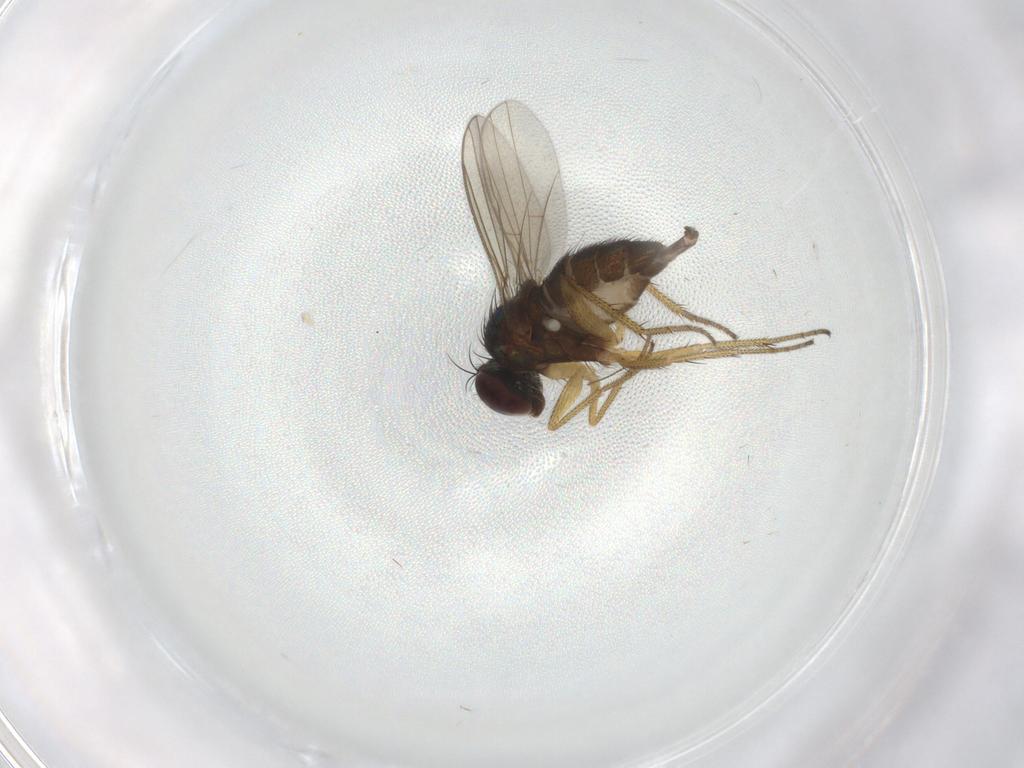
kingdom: Animalia
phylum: Arthropoda
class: Insecta
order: Diptera
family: Dolichopodidae
